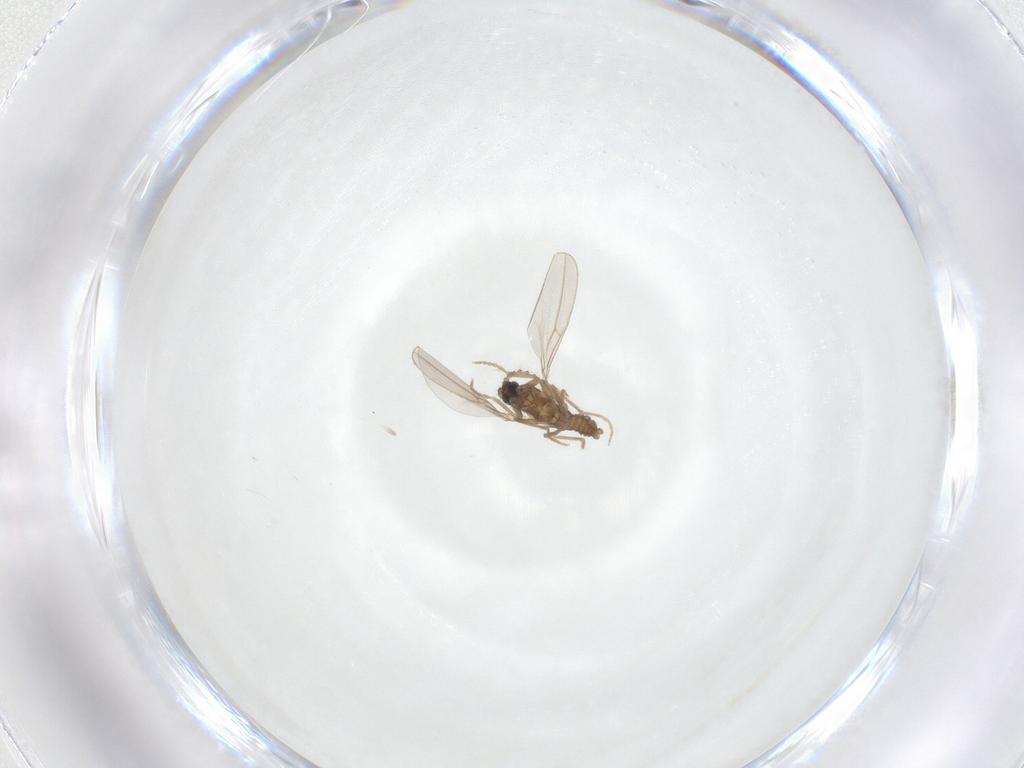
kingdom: Animalia
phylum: Arthropoda
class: Insecta
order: Diptera
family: Cecidomyiidae
